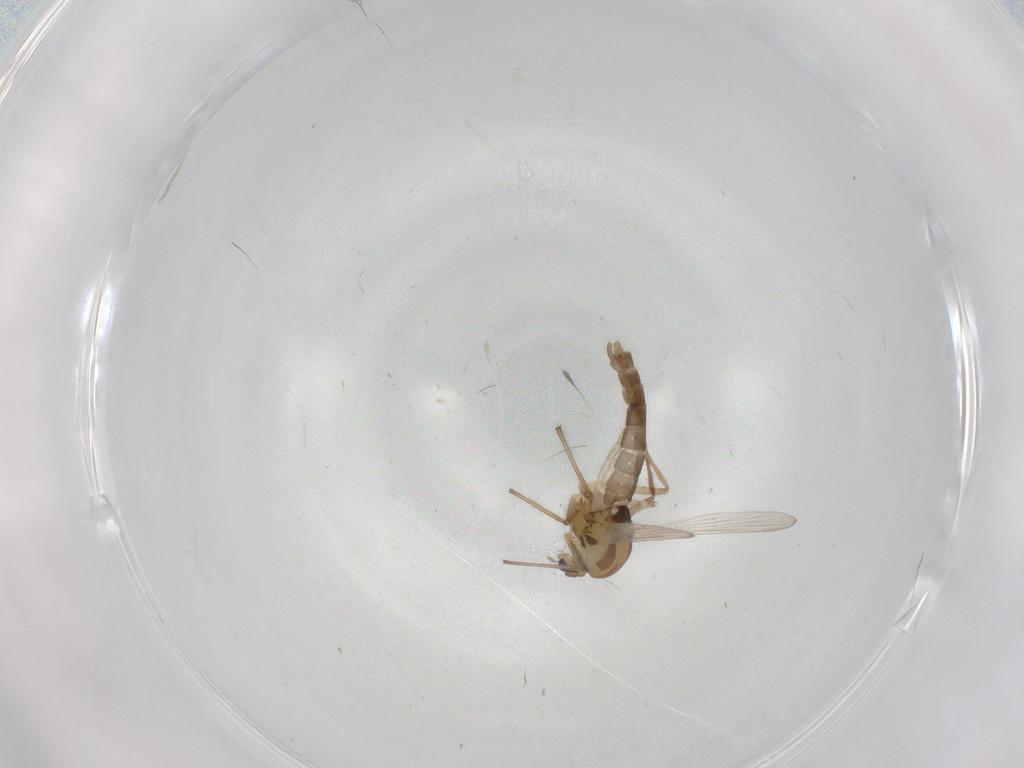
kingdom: Animalia
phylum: Arthropoda
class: Insecta
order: Diptera
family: Chironomidae
